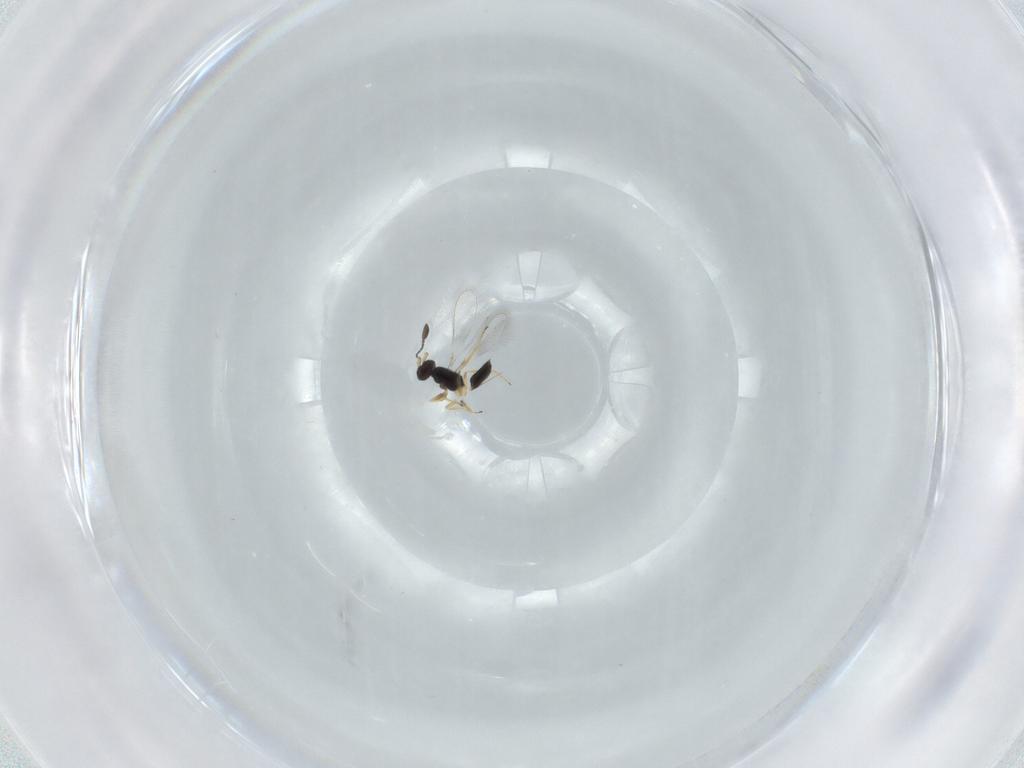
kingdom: Animalia
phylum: Arthropoda
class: Insecta
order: Hymenoptera
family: Mymaridae
